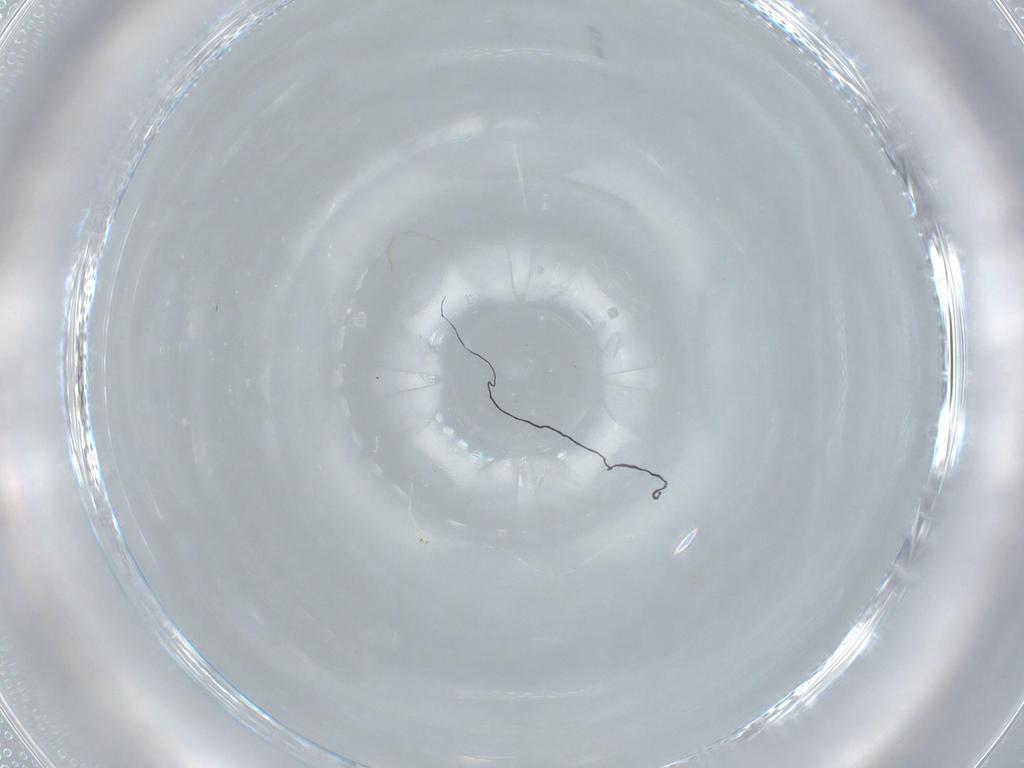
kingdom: Animalia
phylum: Arthropoda
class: Insecta
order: Diptera
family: Mycetophilidae
